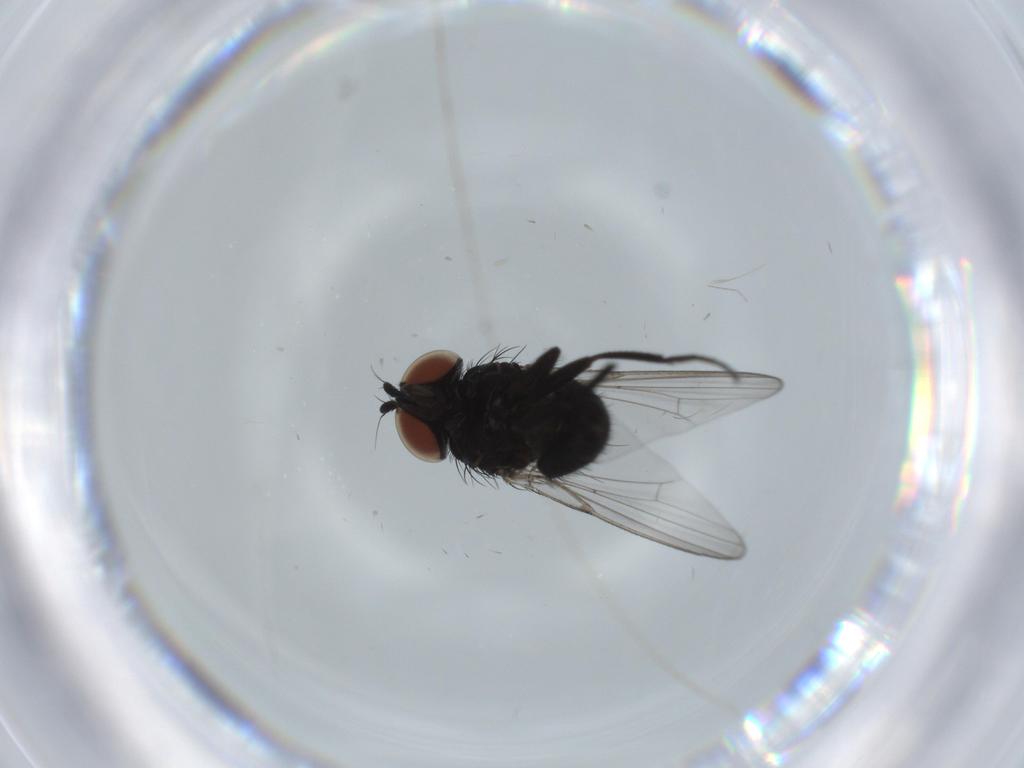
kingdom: Animalia
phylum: Arthropoda
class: Insecta
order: Diptera
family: Milichiidae
